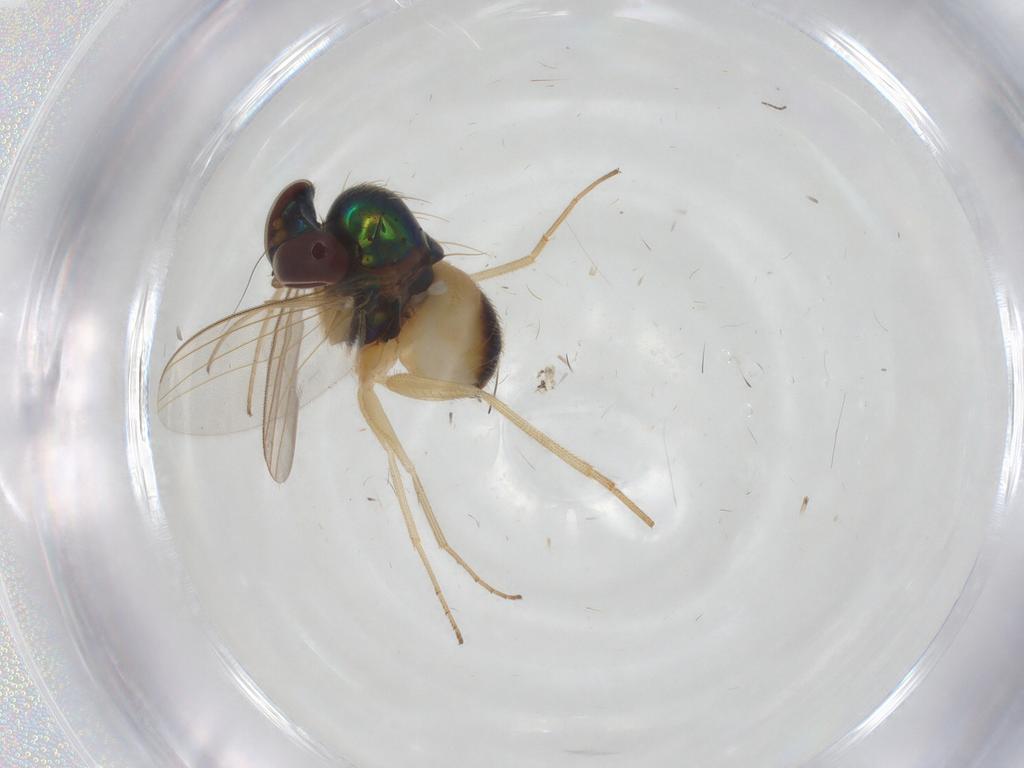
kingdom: Animalia
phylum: Arthropoda
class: Insecta
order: Diptera
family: Dolichopodidae
